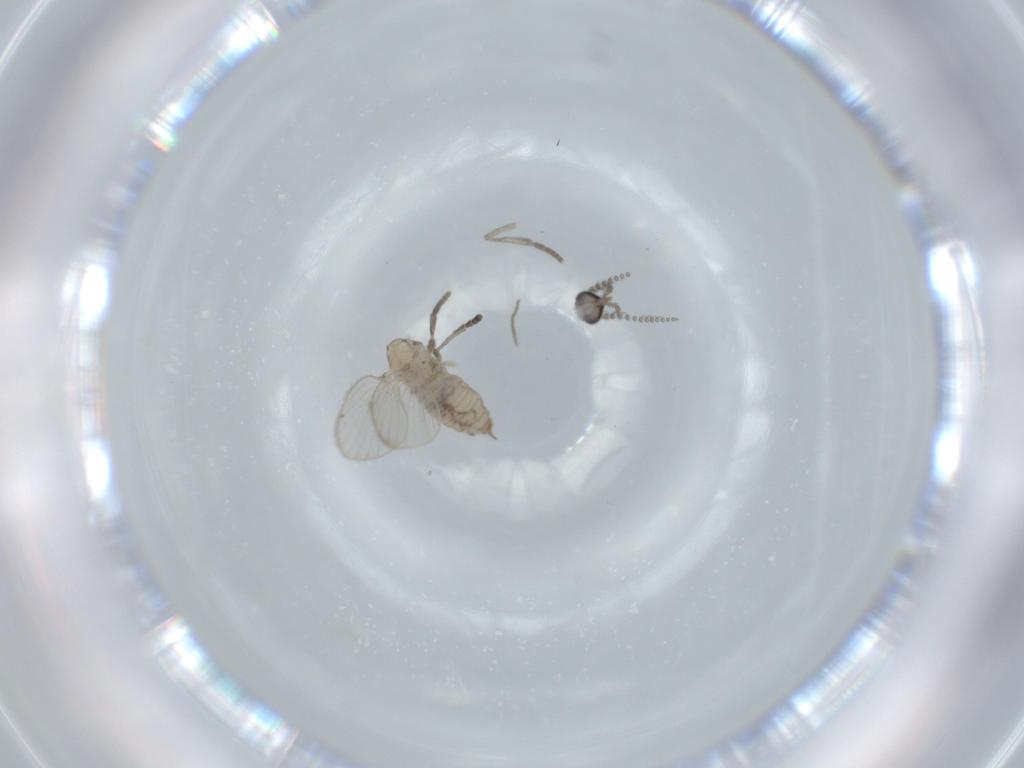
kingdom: Animalia
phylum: Arthropoda
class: Insecta
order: Diptera
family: Psychodidae
